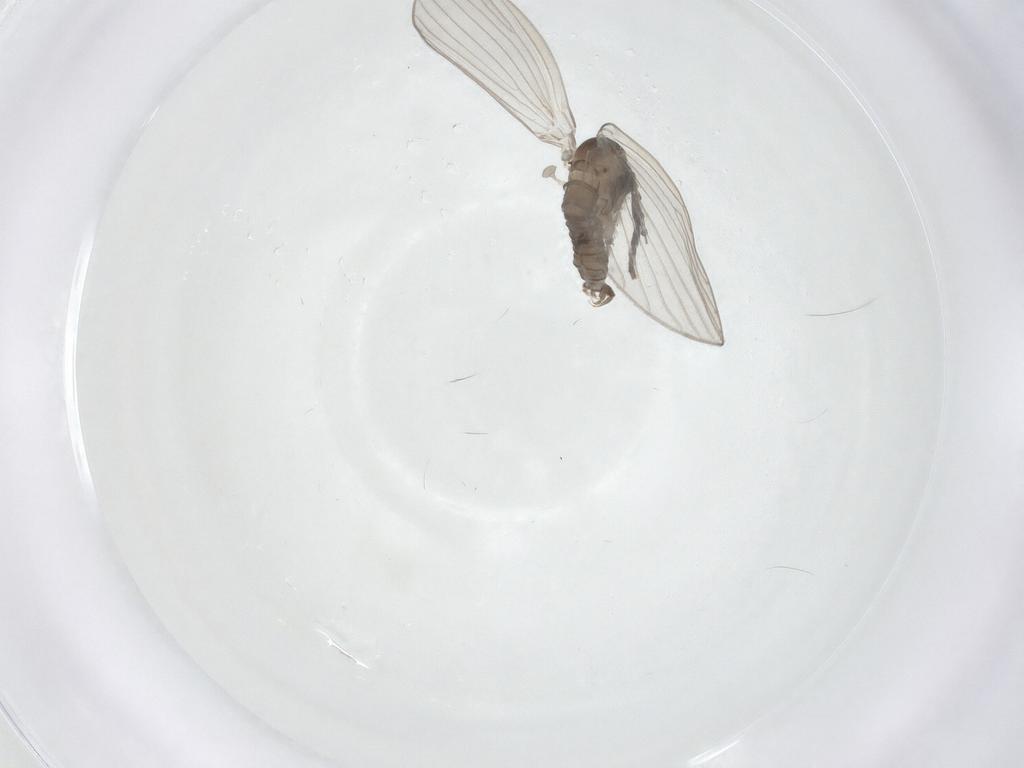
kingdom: Animalia
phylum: Arthropoda
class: Insecta
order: Diptera
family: Psychodidae
